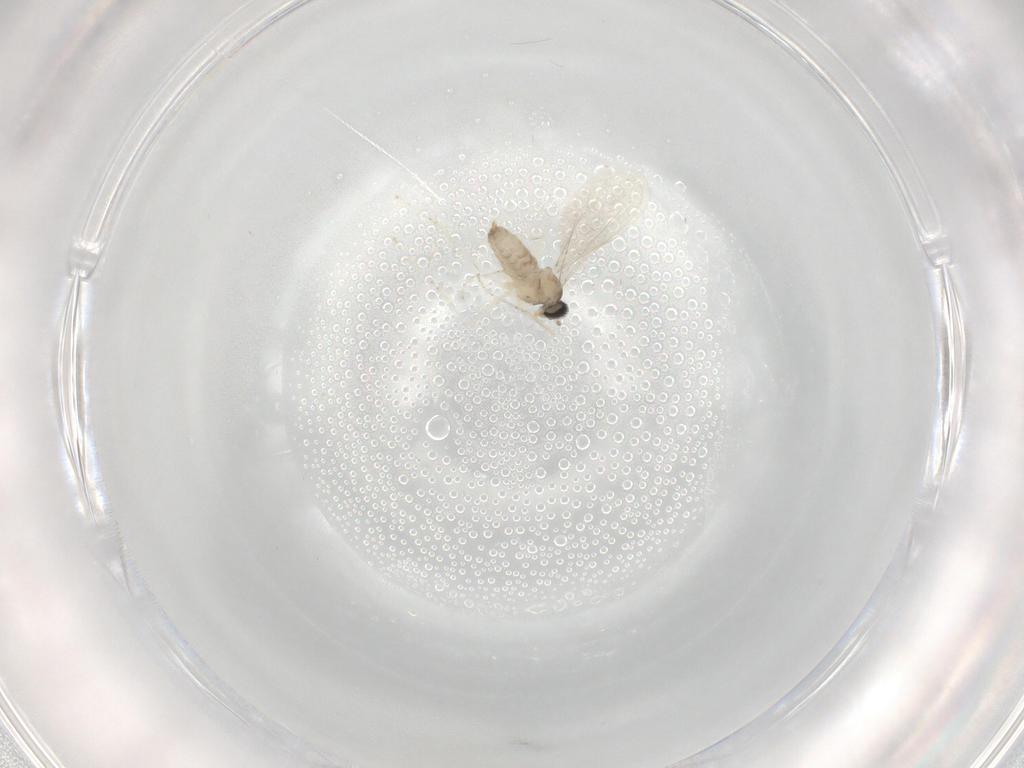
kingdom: Animalia
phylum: Arthropoda
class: Insecta
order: Diptera
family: Cecidomyiidae
